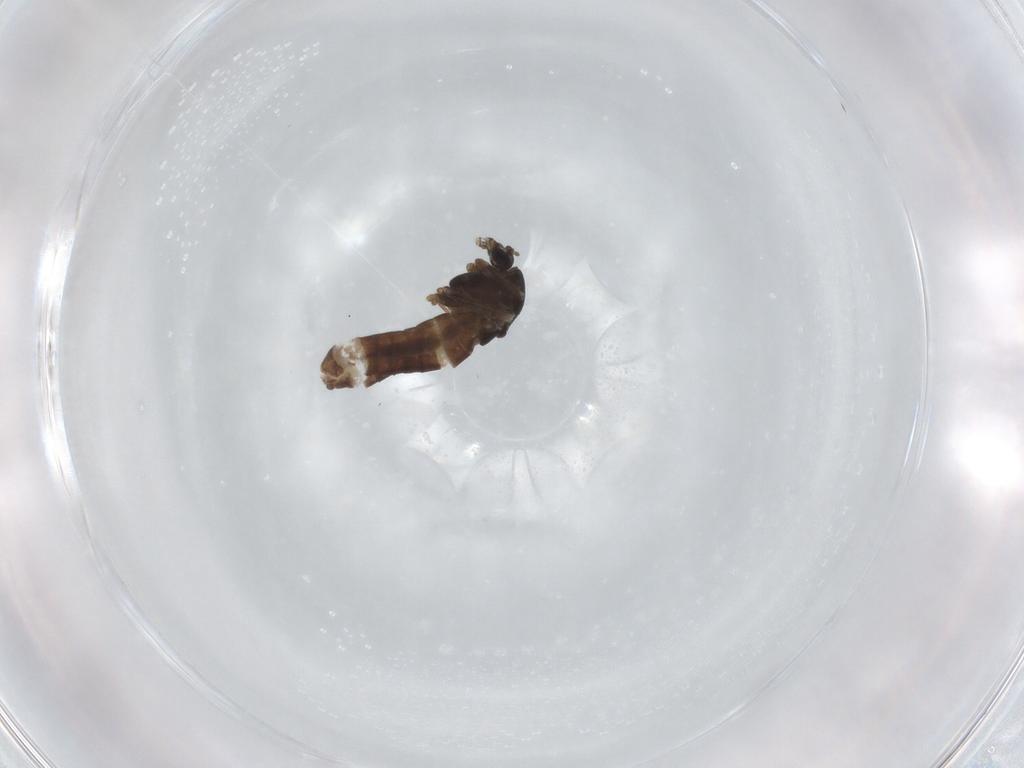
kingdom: Animalia
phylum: Arthropoda
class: Insecta
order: Diptera
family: Chironomidae
